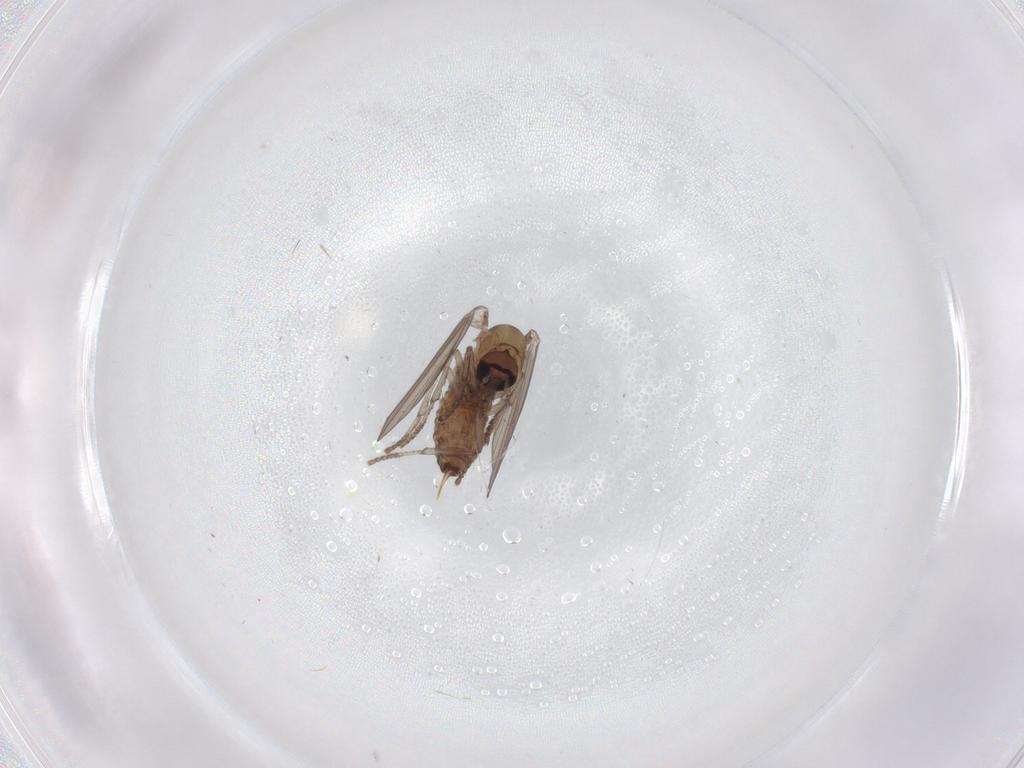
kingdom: Animalia
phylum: Arthropoda
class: Insecta
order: Diptera
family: Psychodidae
